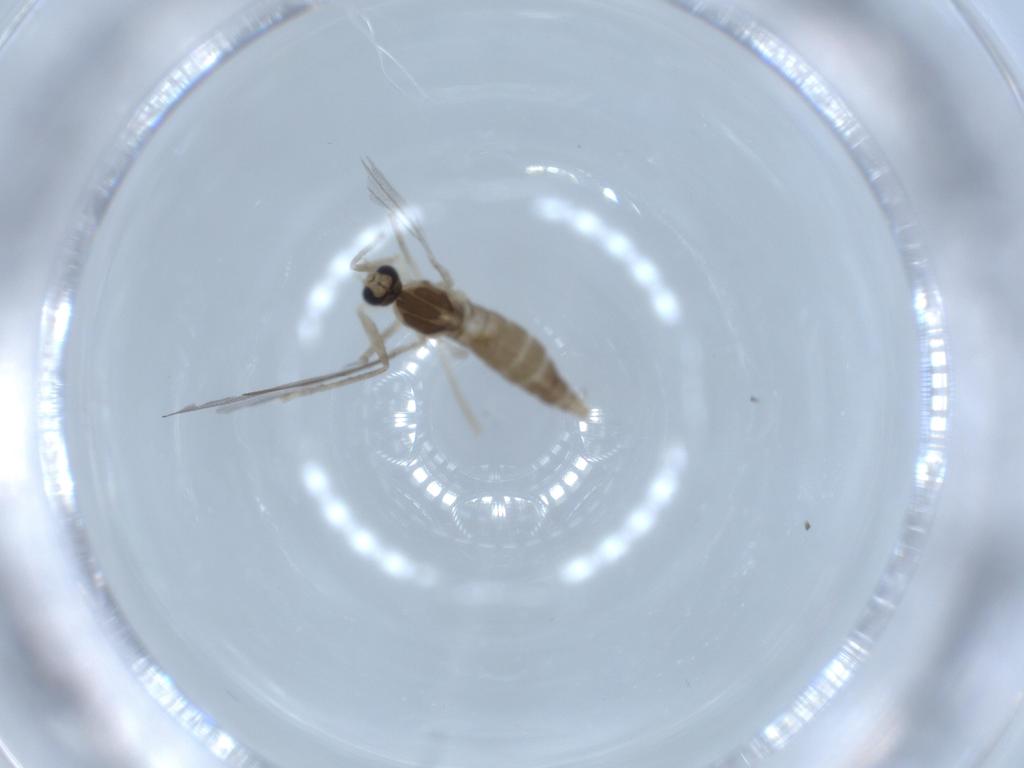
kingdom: Animalia
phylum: Arthropoda
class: Insecta
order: Diptera
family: Cecidomyiidae
